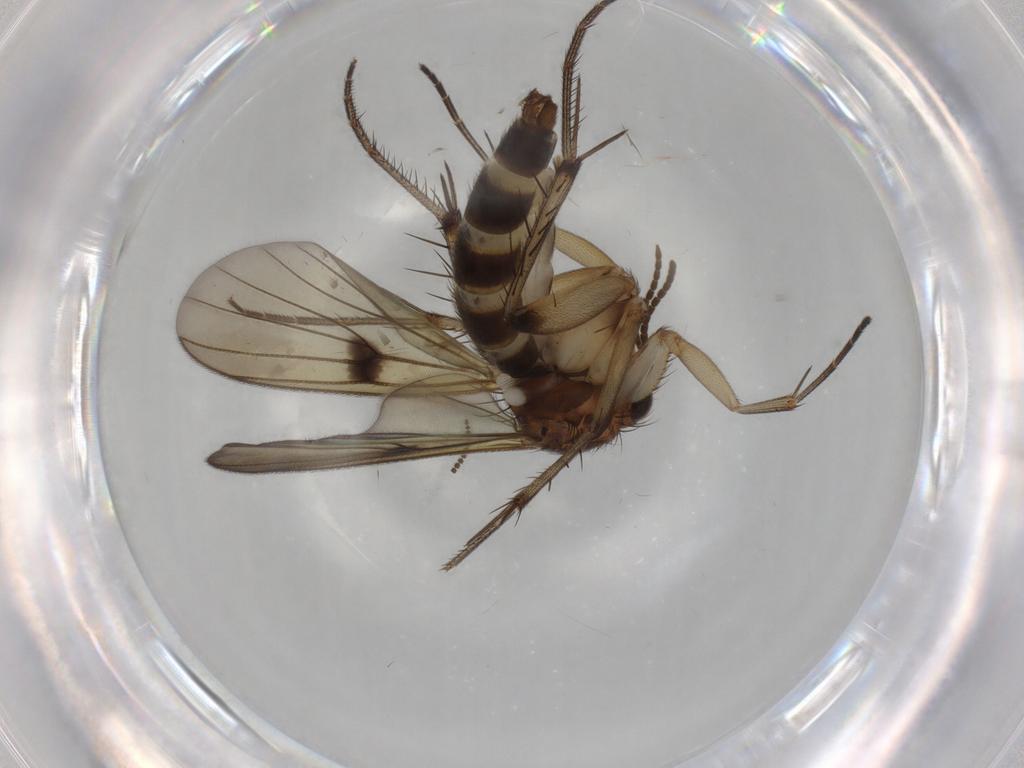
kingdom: Animalia
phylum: Arthropoda
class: Insecta
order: Diptera
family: Mycetophilidae
